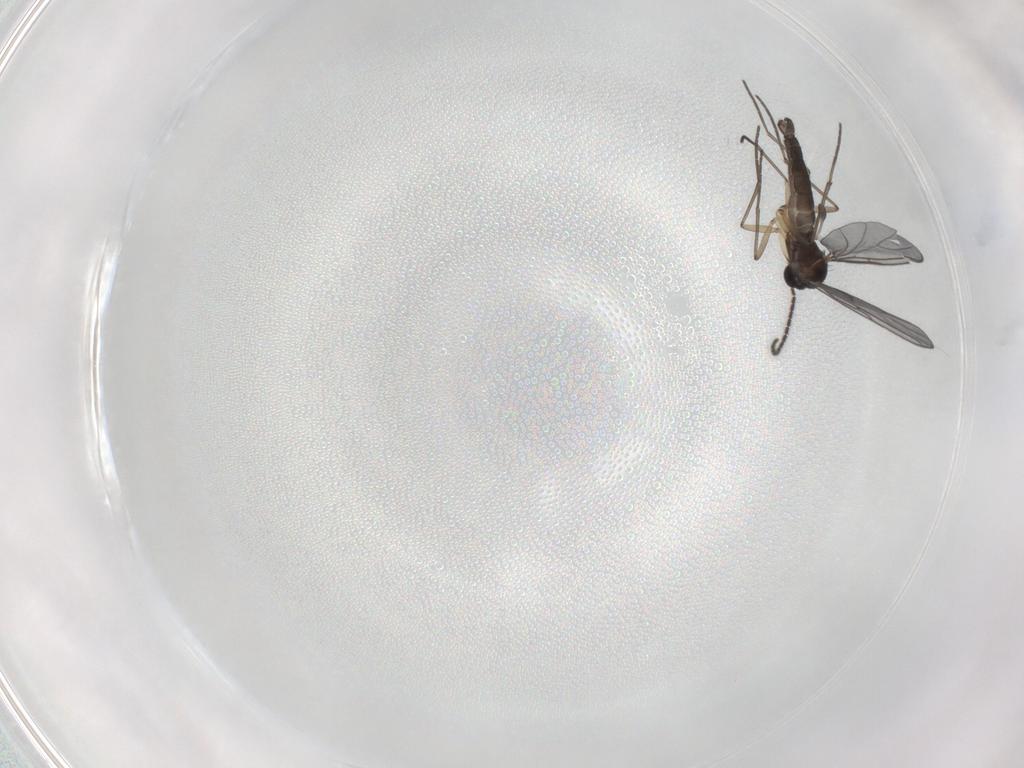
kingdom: Animalia
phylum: Arthropoda
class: Insecta
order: Diptera
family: Sciaridae
